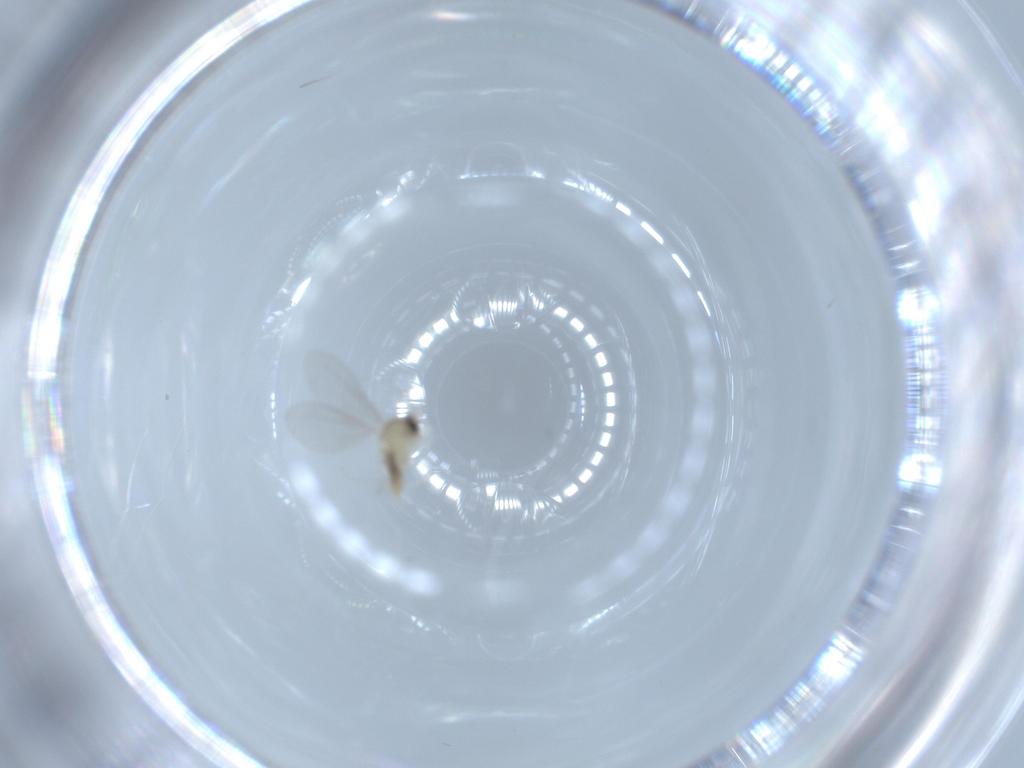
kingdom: Animalia
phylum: Arthropoda
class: Insecta
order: Diptera
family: Cecidomyiidae
